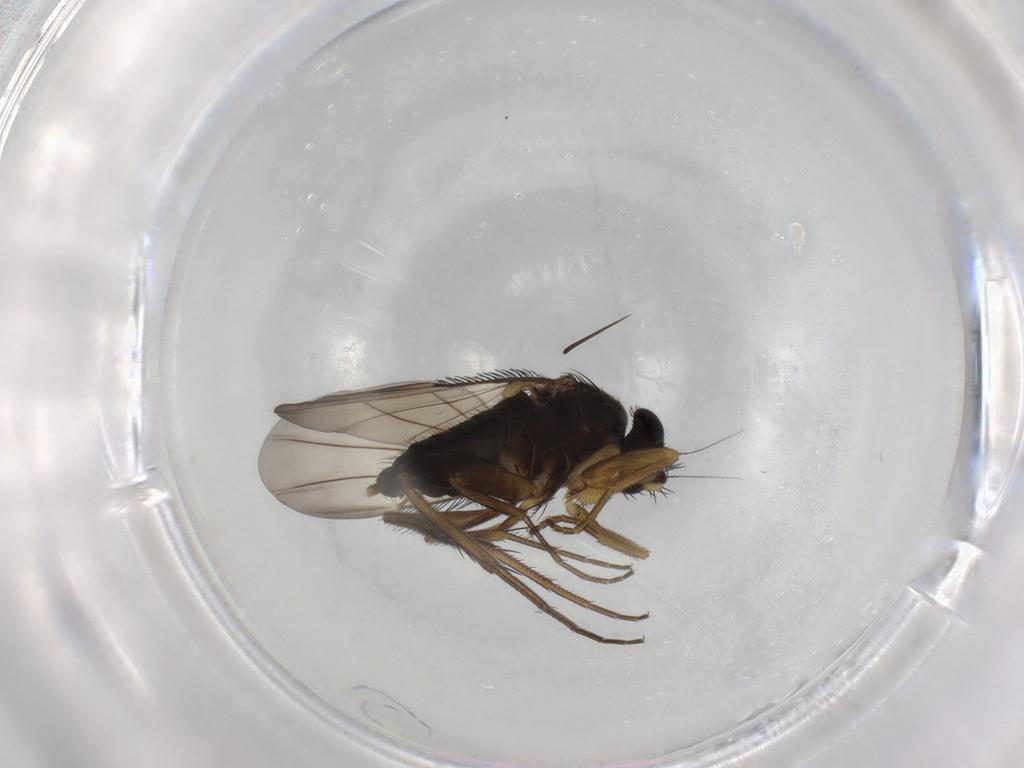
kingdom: Animalia
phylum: Arthropoda
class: Insecta
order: Diptera
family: Phoridae
